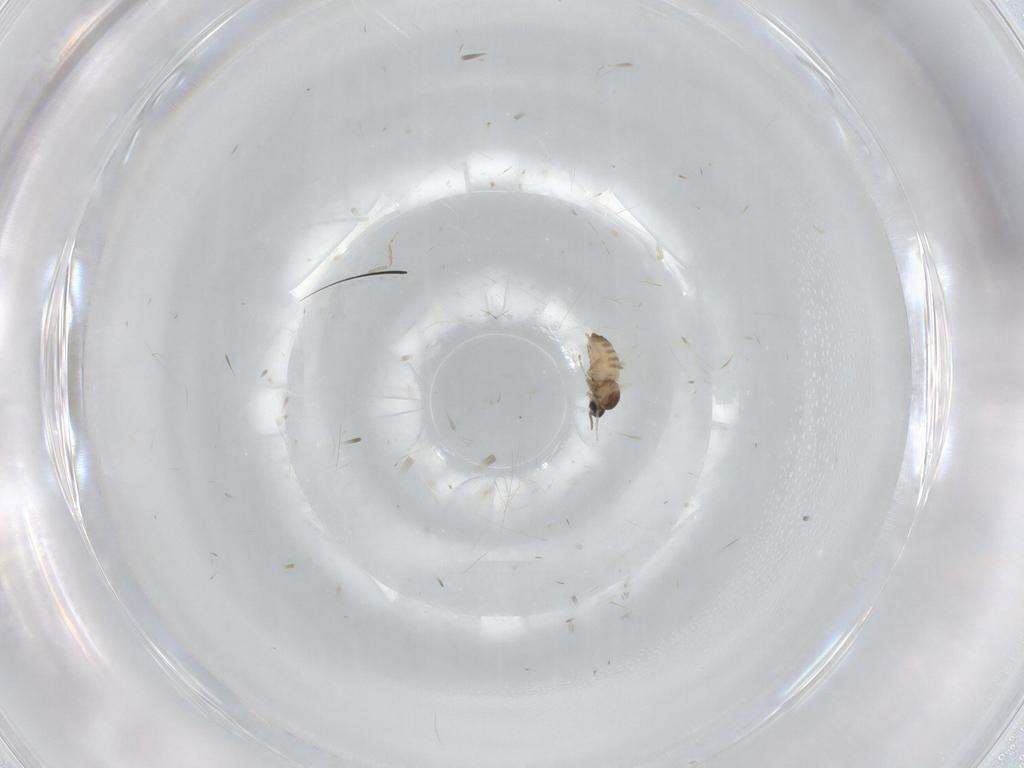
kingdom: Animalia
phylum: Arthropoda
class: Insecta
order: Diptera
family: Cecidomyiidae
